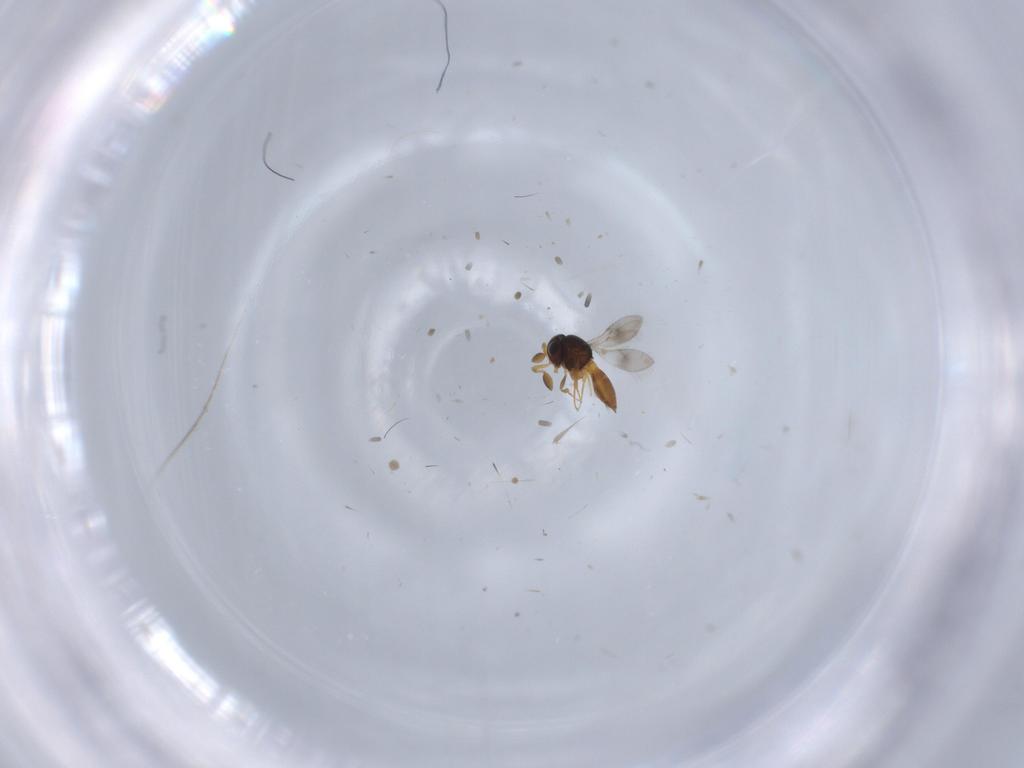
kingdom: Animalia
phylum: Arthropoda
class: Insecta
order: Hymenoptera
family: Scelionidae
